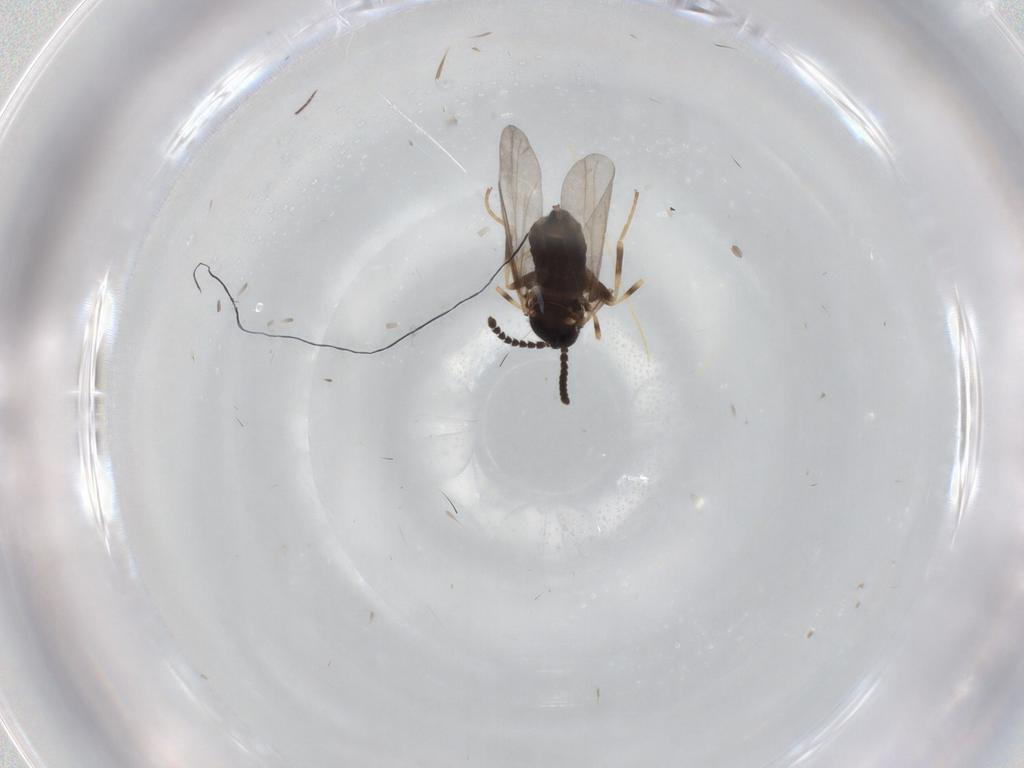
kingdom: Animalia
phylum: Arthropoda
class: Insecta
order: Diptera
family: Scatopsidae
